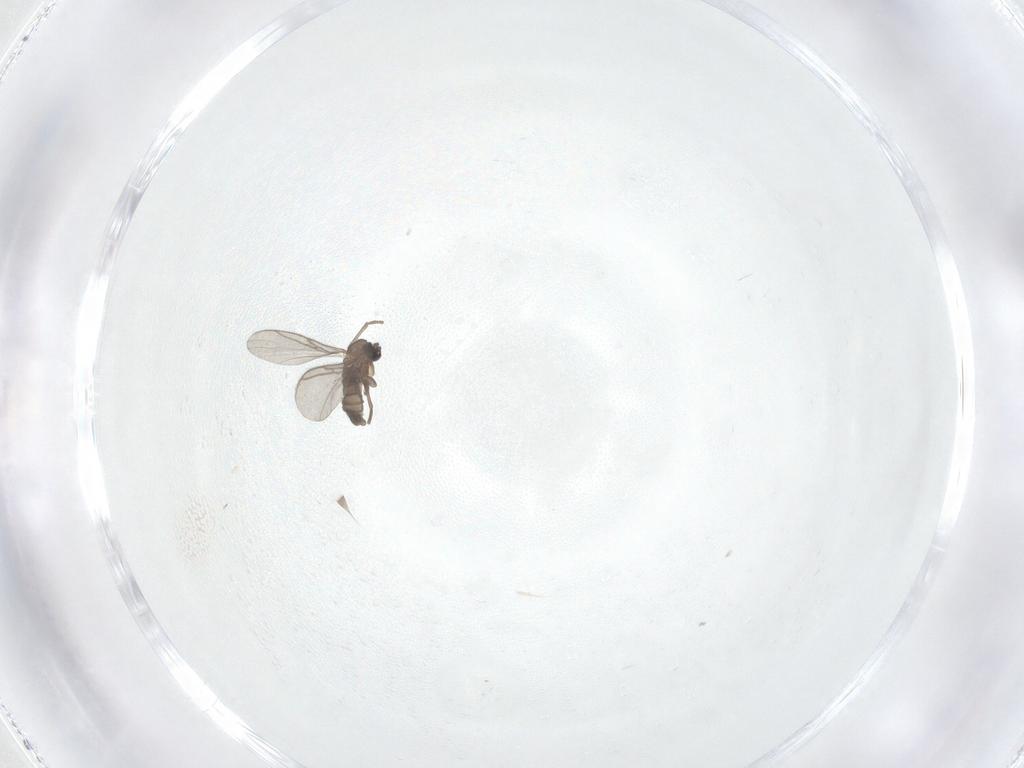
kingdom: Animalia
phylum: Arthropoda
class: Insecta
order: Diptera
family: Sciaridae
